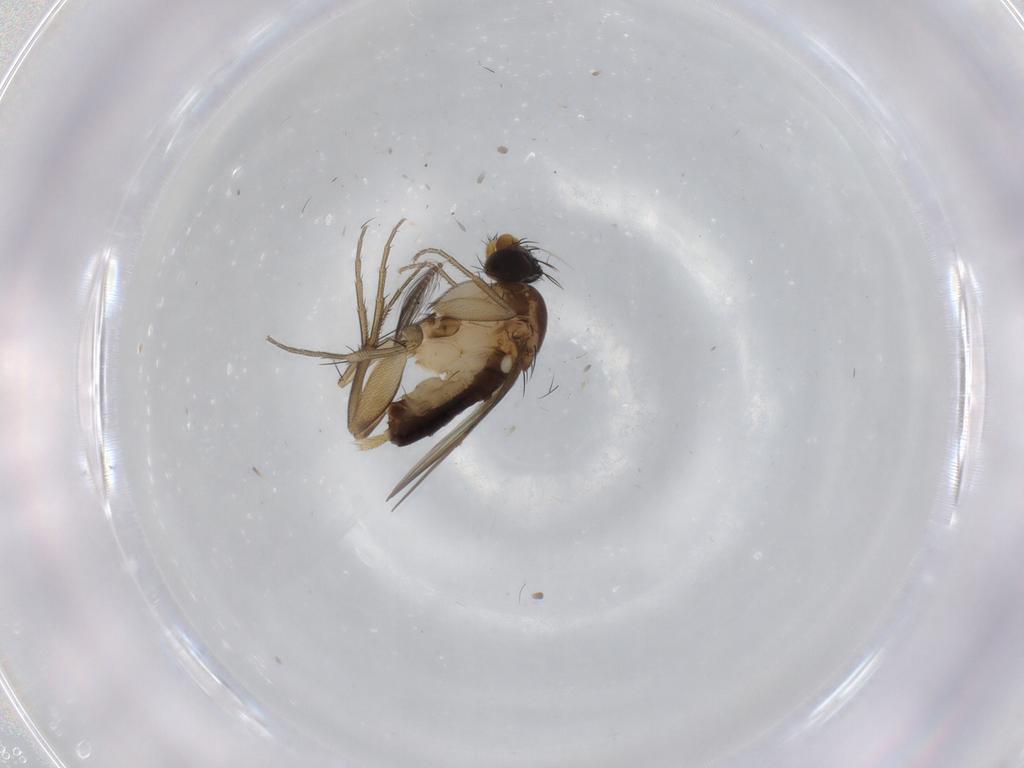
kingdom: Animalia
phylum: Arthropoda
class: Insecta
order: Diptera
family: Phoridae
